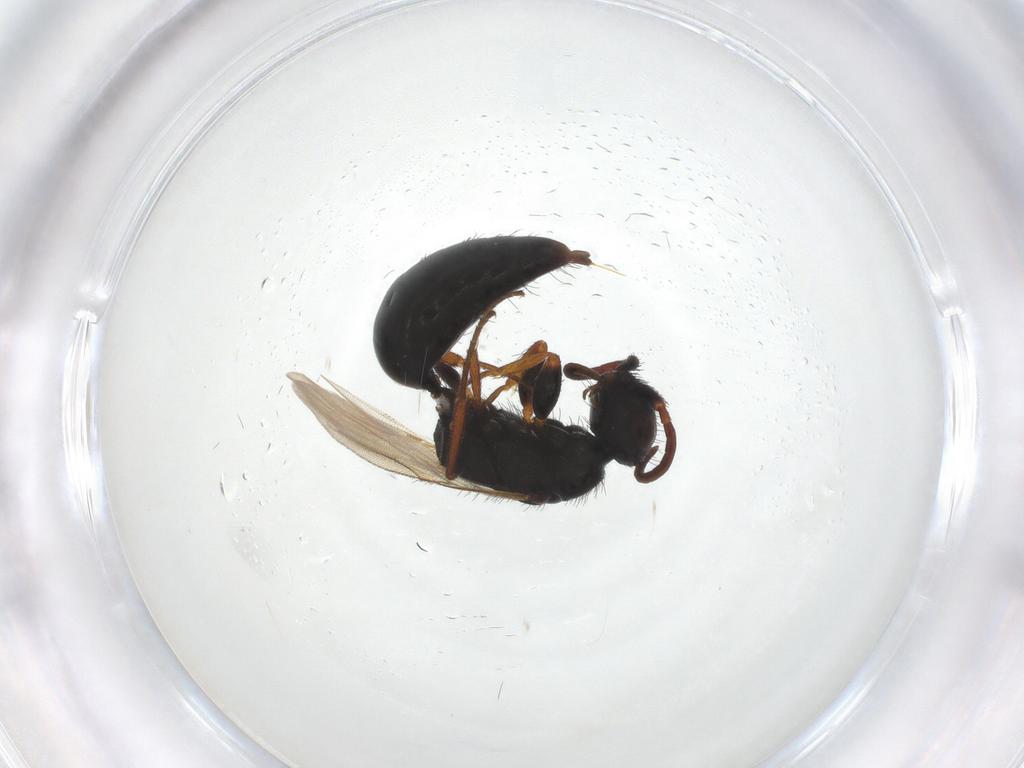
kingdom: Animalia
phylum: Arthropoda
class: Insecta
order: Hymenoptera
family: Bethylidae
